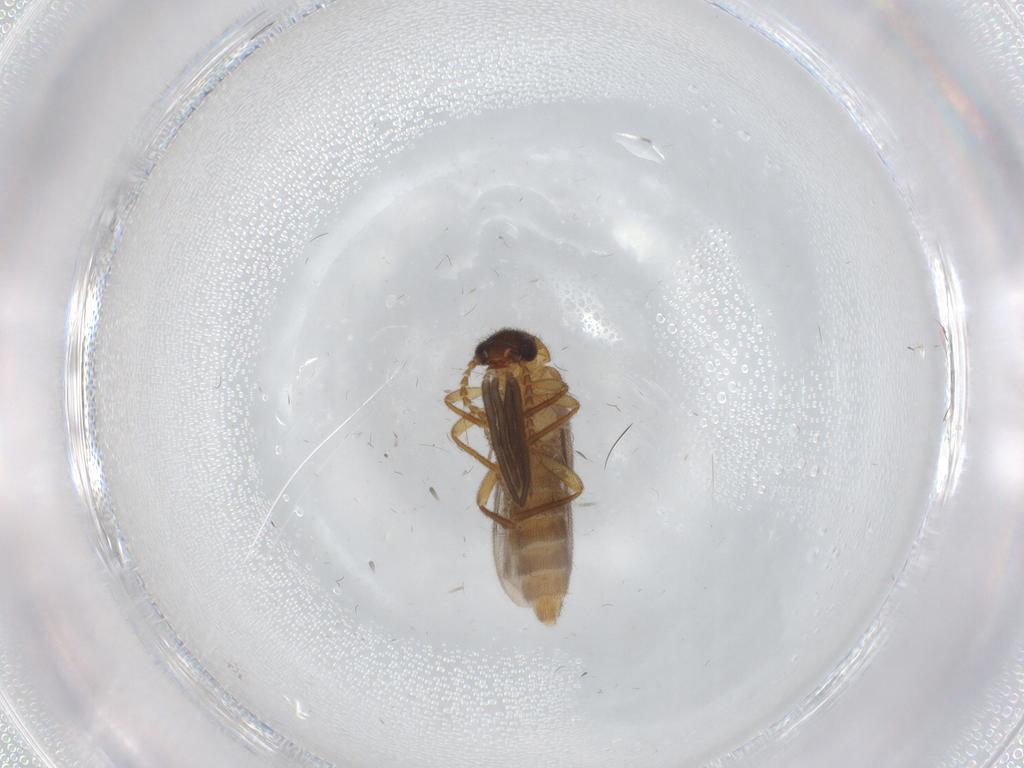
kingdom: Animalia
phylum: Arthropoda
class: Insecta
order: Coleoptera
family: Omethidae
